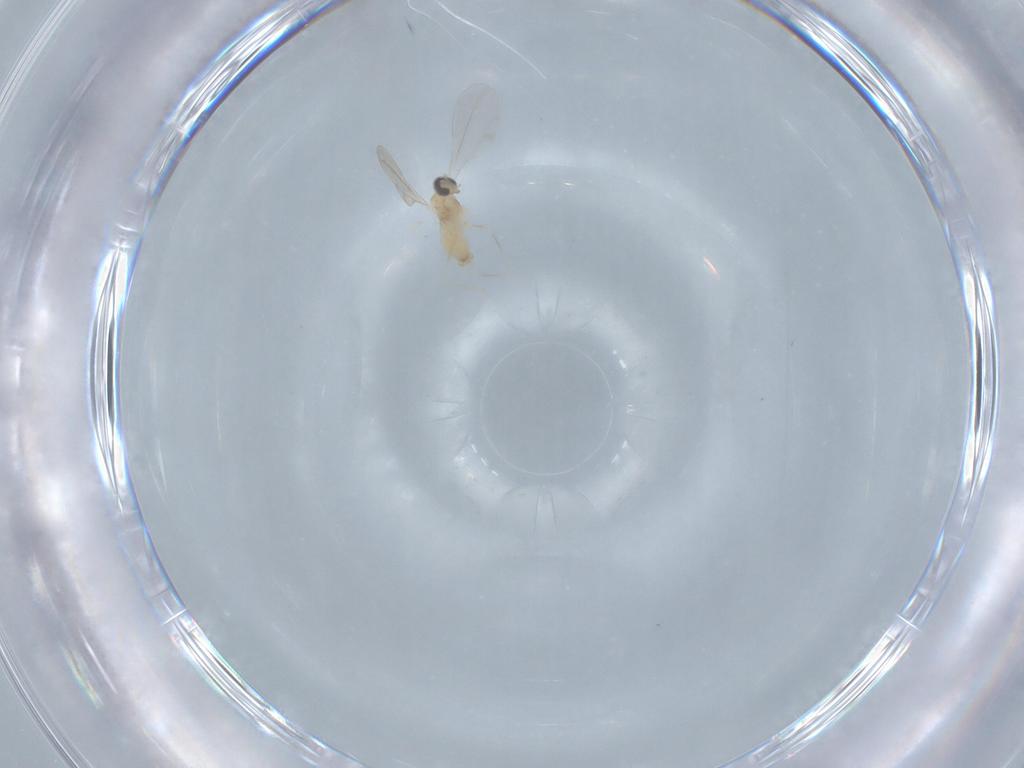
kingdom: Animalia
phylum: Arthropoda
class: Insecta
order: Diptera
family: Cecidomyiidae
